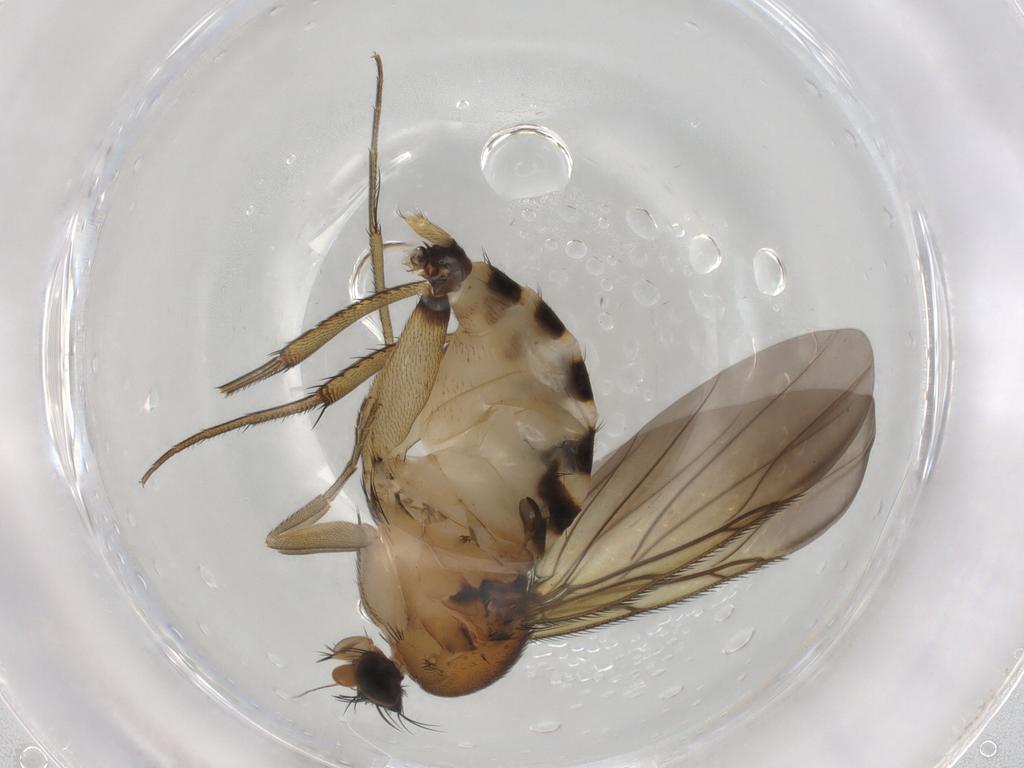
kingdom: Animalia
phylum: Arthropoda
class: Insecta
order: Diptera
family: Phoridae
